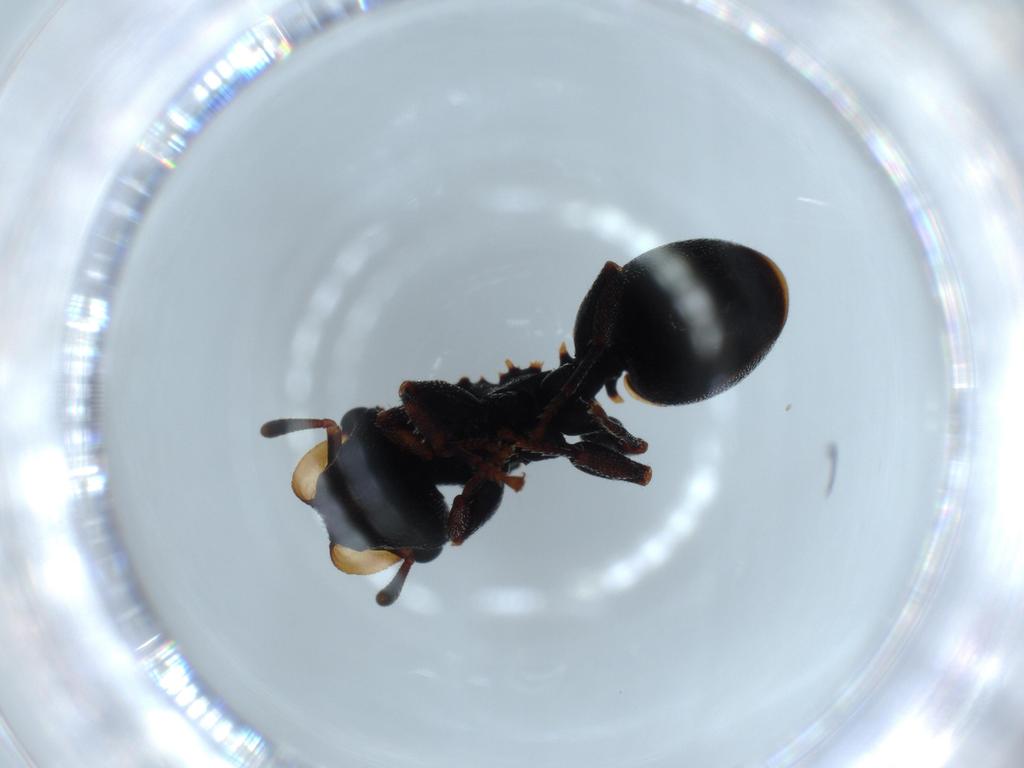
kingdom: Animalia
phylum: Arthropoda
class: Insecta
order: Hymenoptera
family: Formicidae
